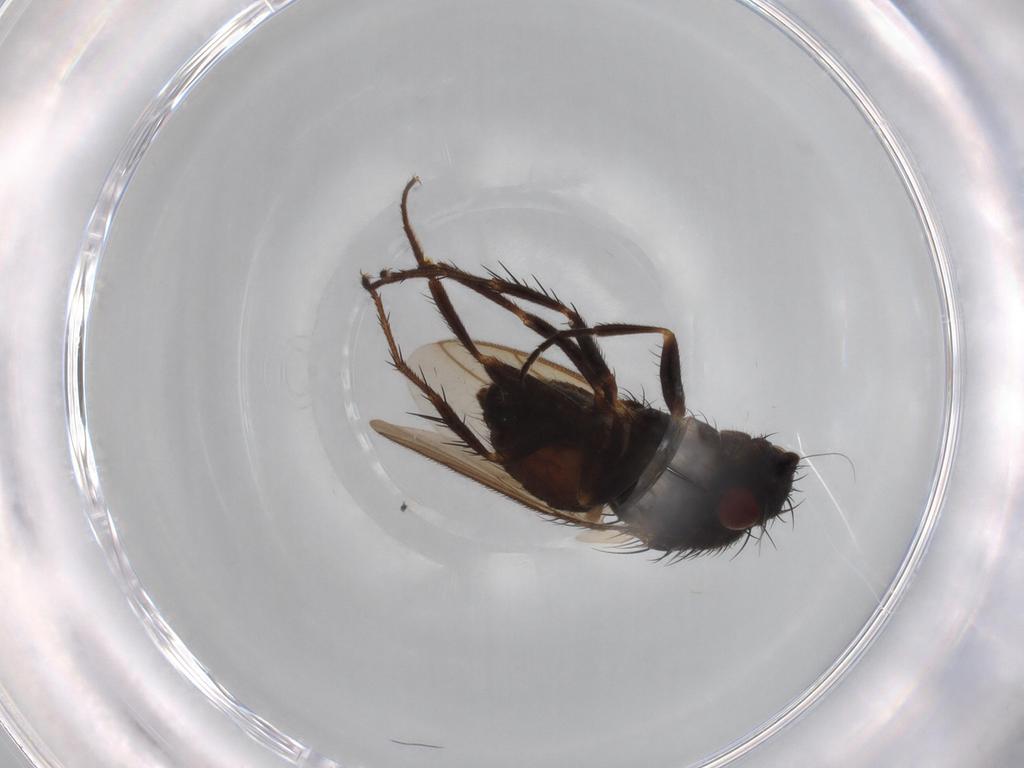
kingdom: Animalia
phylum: Arthropoda
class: Insecta
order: Diptera
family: Sphaeroceridae
